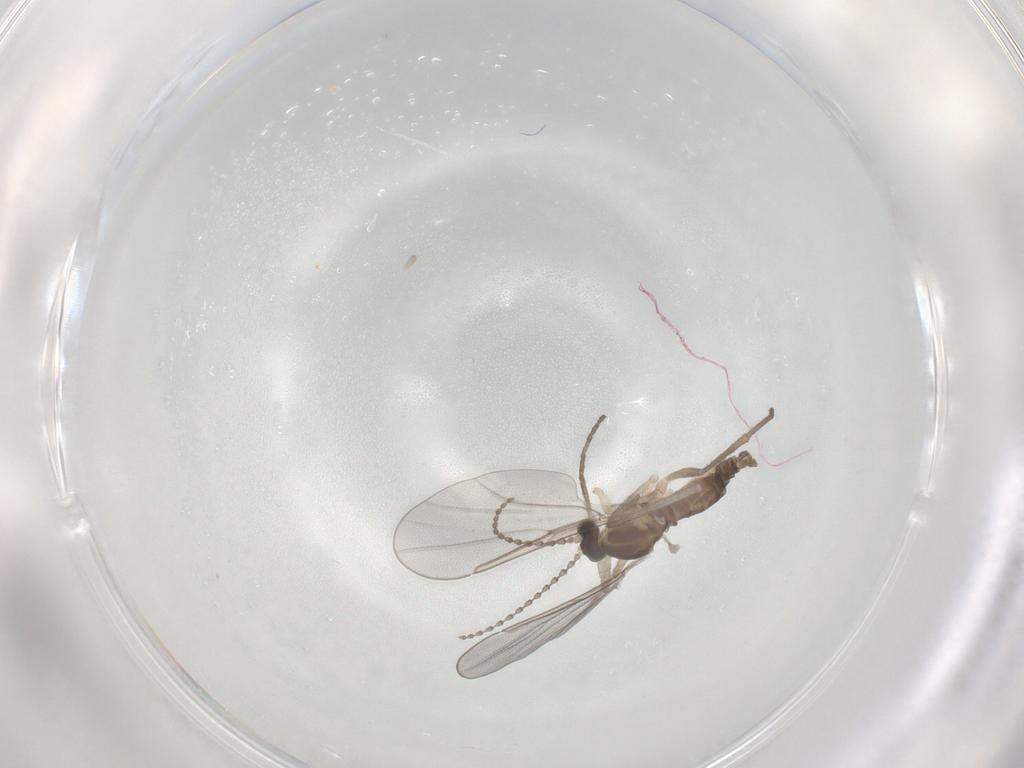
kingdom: Animalia
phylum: Arthropoda
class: Insecta
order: Diptera
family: Cecidomyiidae
